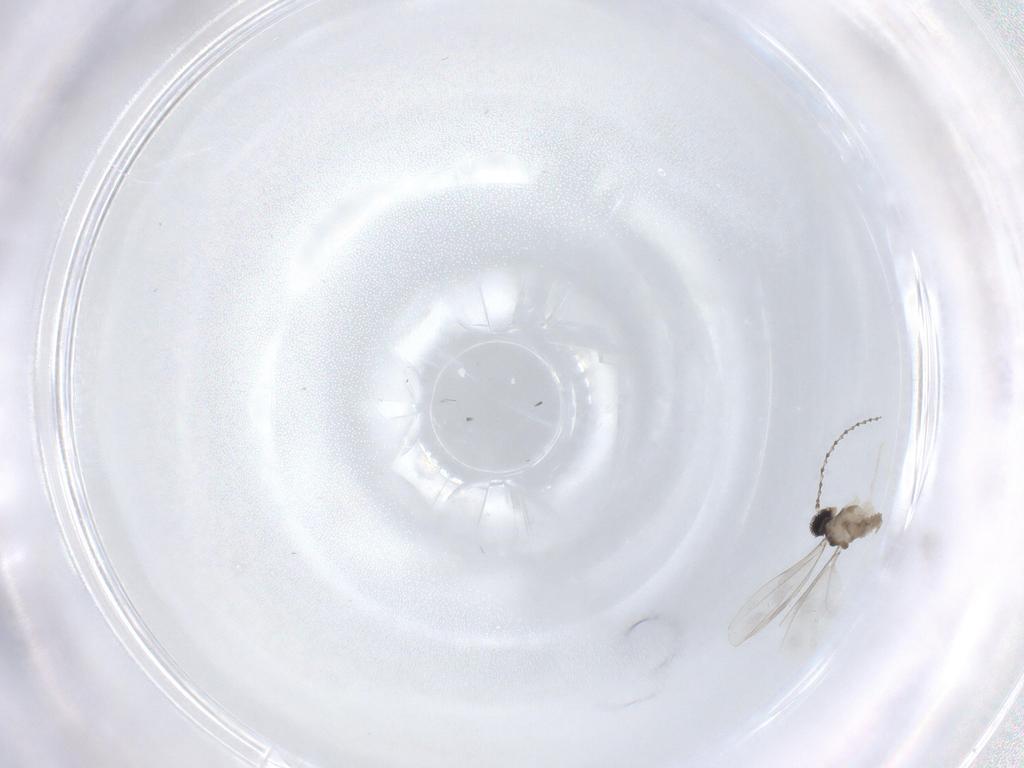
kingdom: Animalia
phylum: Arthropoda
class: Insecta
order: Diptera
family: Cecidomyiidae
